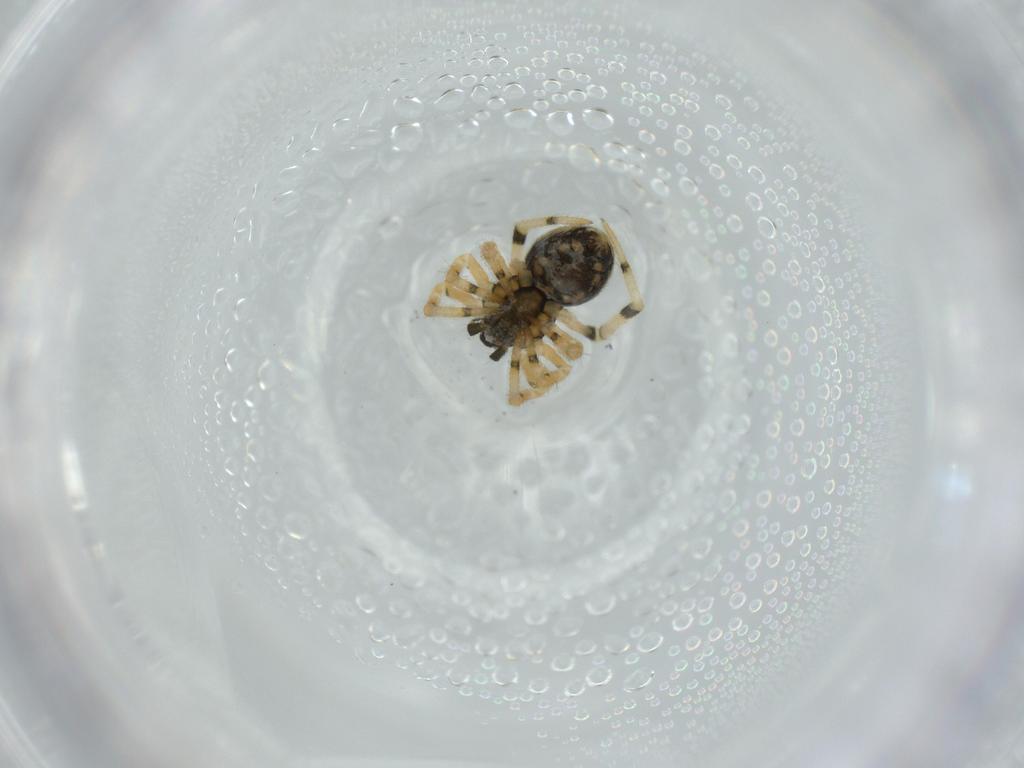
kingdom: Animalia
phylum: Arthropoda
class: Arachnida
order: Araneae
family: Theridiidae
